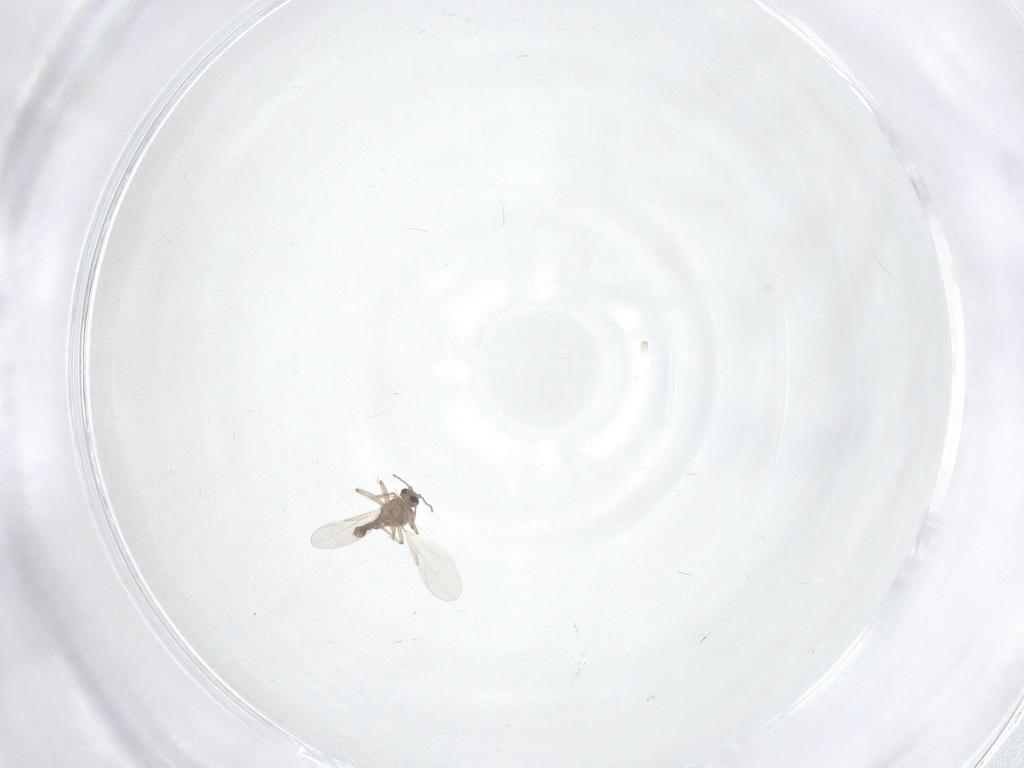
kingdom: Animalia
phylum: Arthropoda
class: Insecta
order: Diptera
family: Ceratopogonidae
